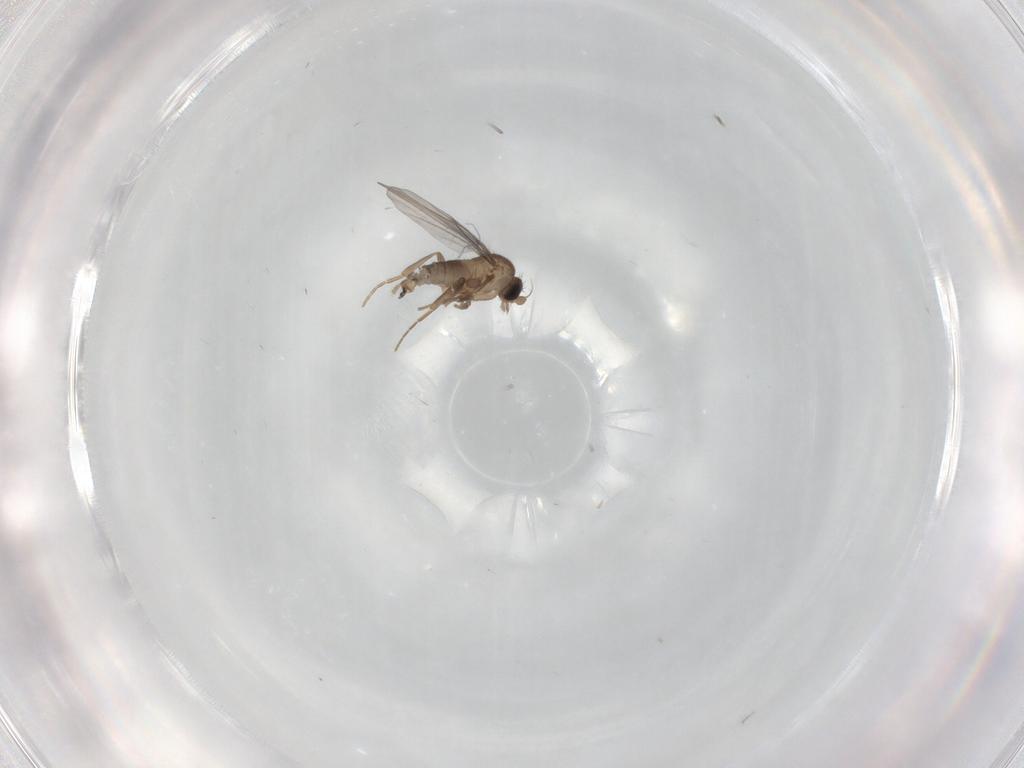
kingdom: Animalia
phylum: Arthropoda
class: Insecta
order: Diptera
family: Cecidomyiidae
